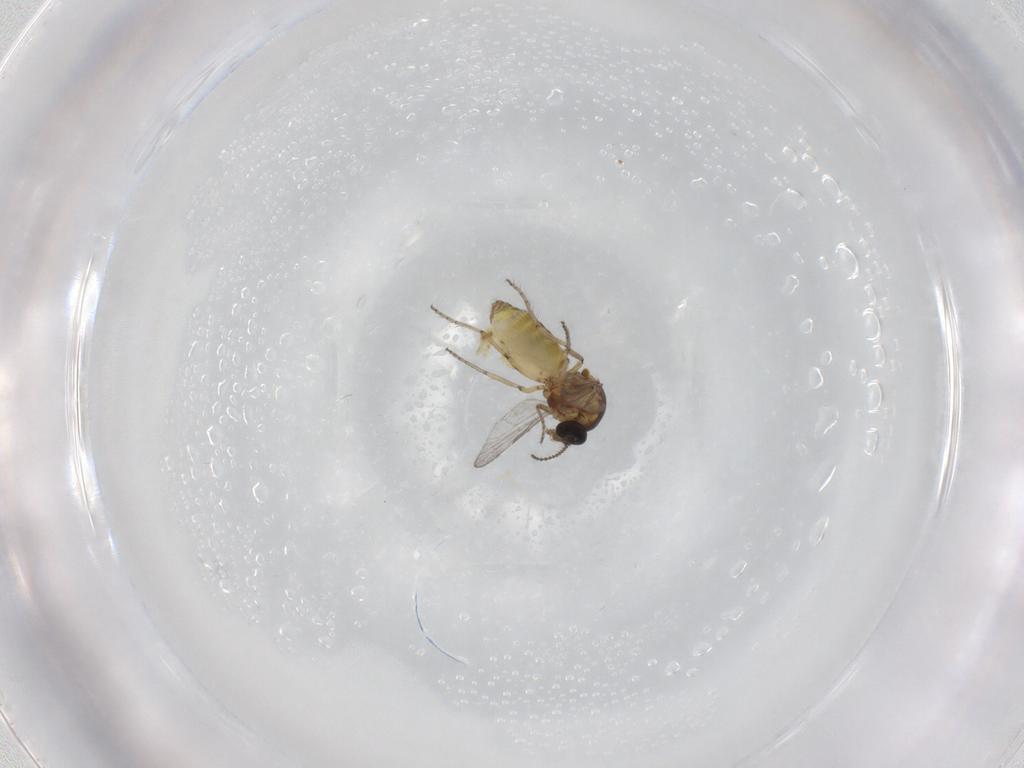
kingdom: Animalia
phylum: Arthropoda
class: Insecta
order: Diptera
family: Ceratopogonidae
